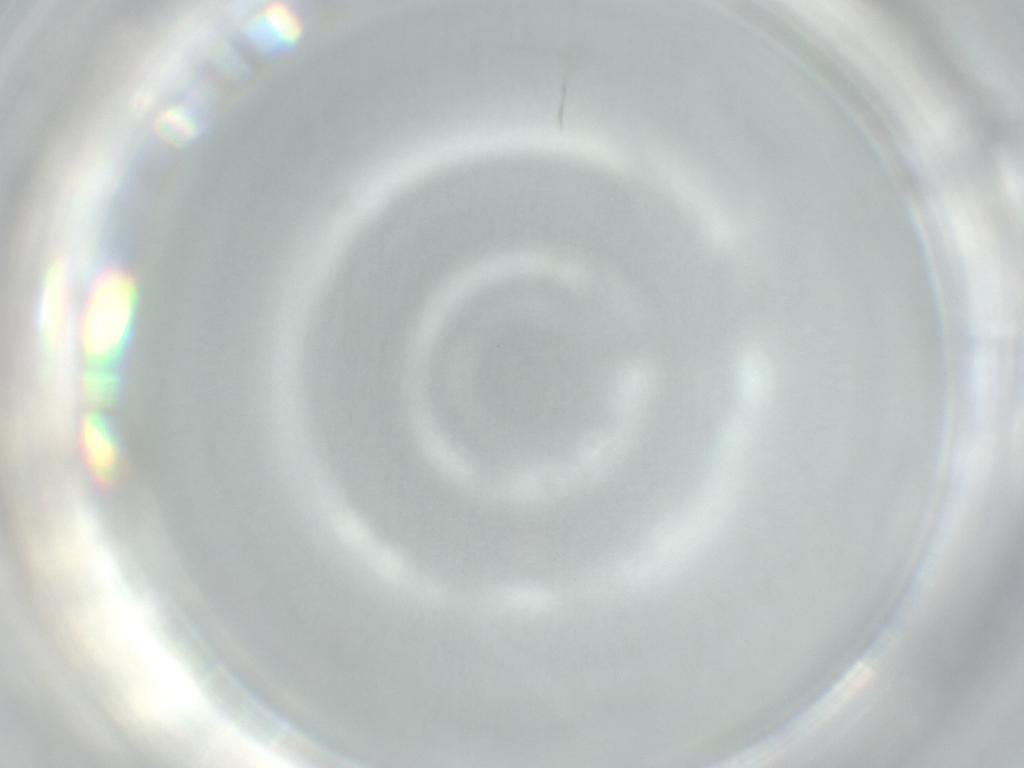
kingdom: Animalia
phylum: Arthropoda
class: Insecta
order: Diptera
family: Cecidomyiidae
